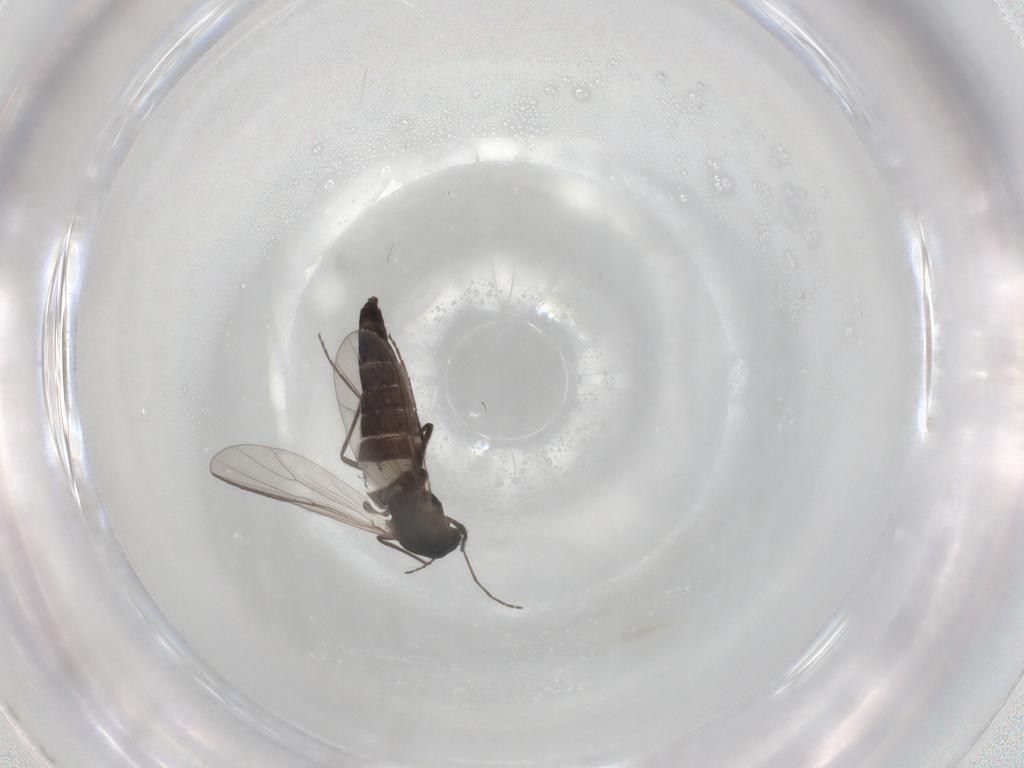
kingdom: Animalia
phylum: Arthropoda
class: Insecta
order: Diptera
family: Chironomidae
